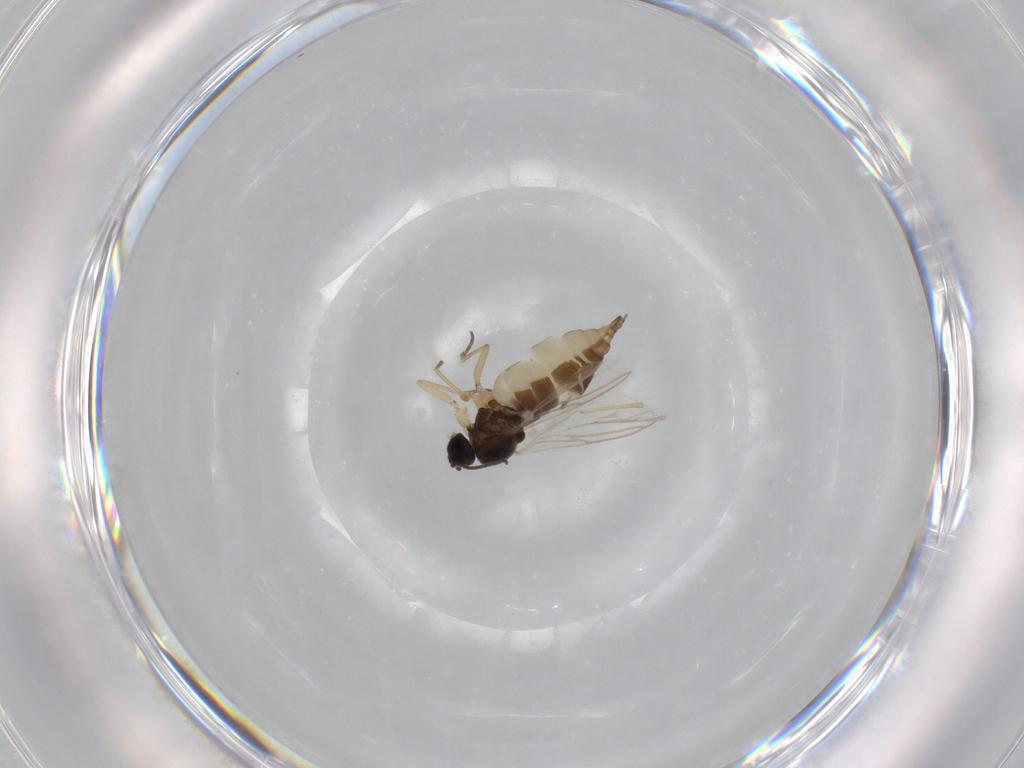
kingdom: Animalia
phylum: Arthropoda
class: Insecta
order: Diptera
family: Sciaridae
